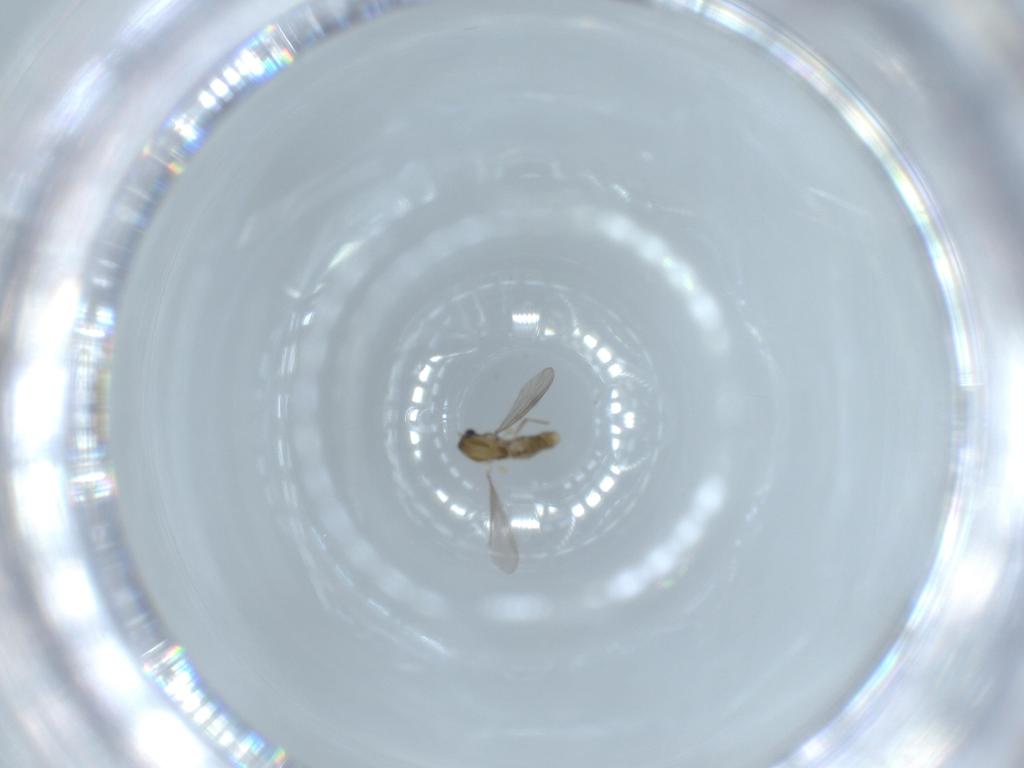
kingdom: Animalia
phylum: Arthropoda
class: Insecta
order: Diptera
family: Chironomidae
